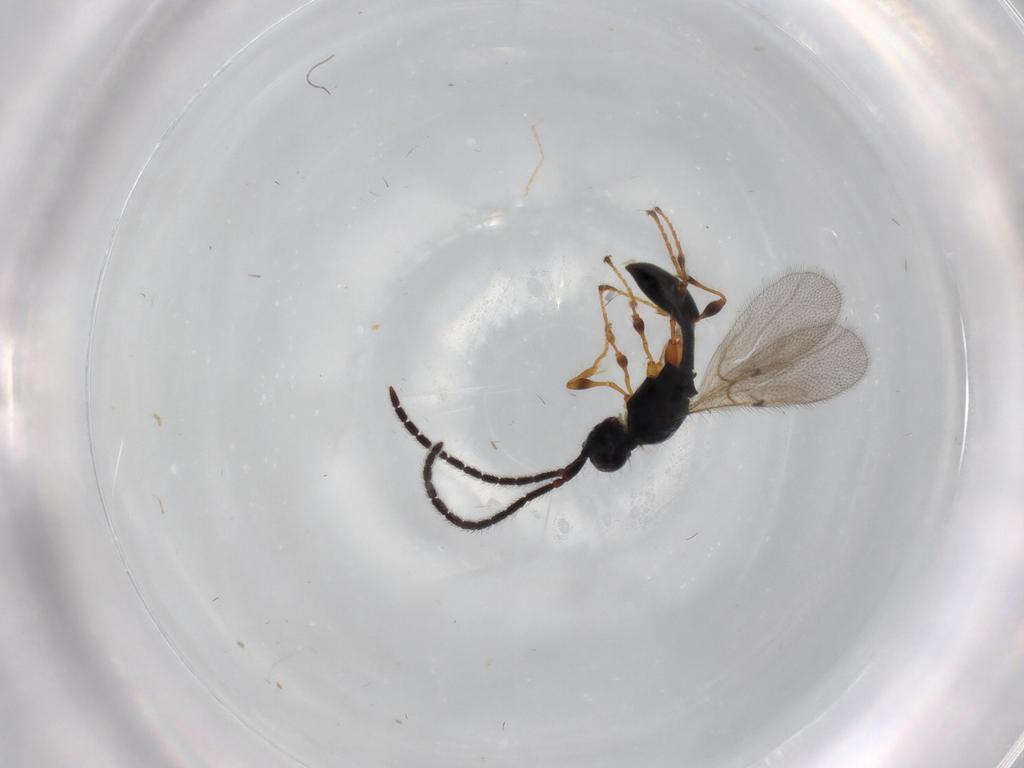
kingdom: Animalia
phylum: Arthropoda
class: Insecta
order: Hymenoptera
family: Diapriidae
